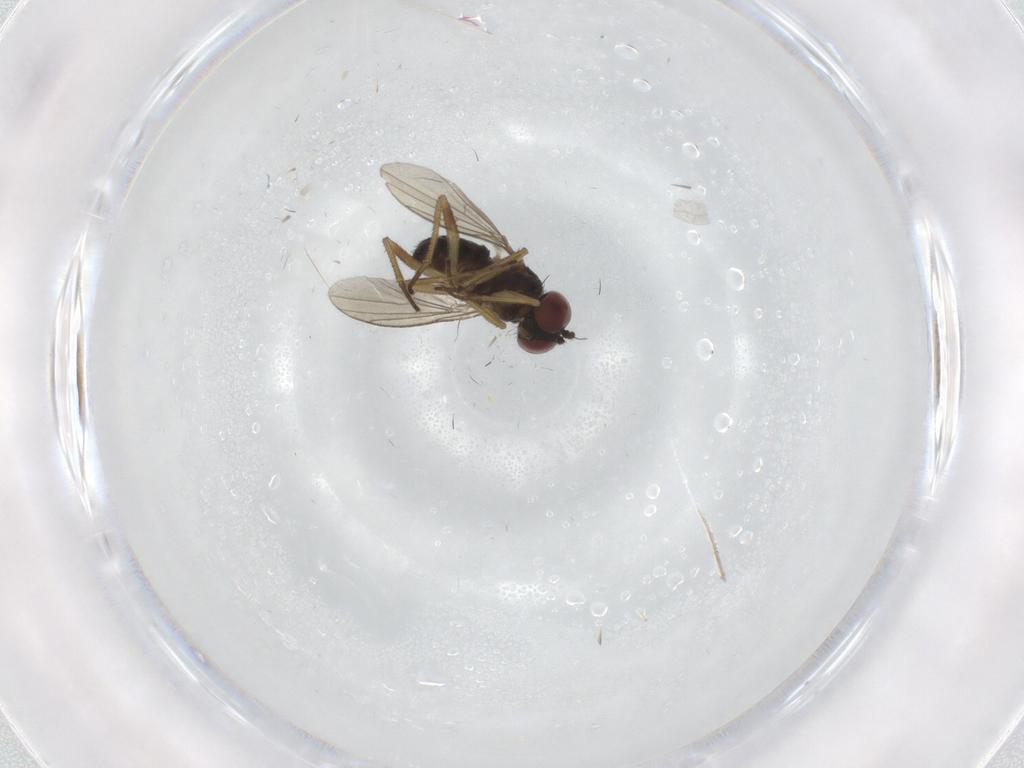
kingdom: Animalia
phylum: Arthropoda
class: Insecta
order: Diptera
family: Dolichopodidae
